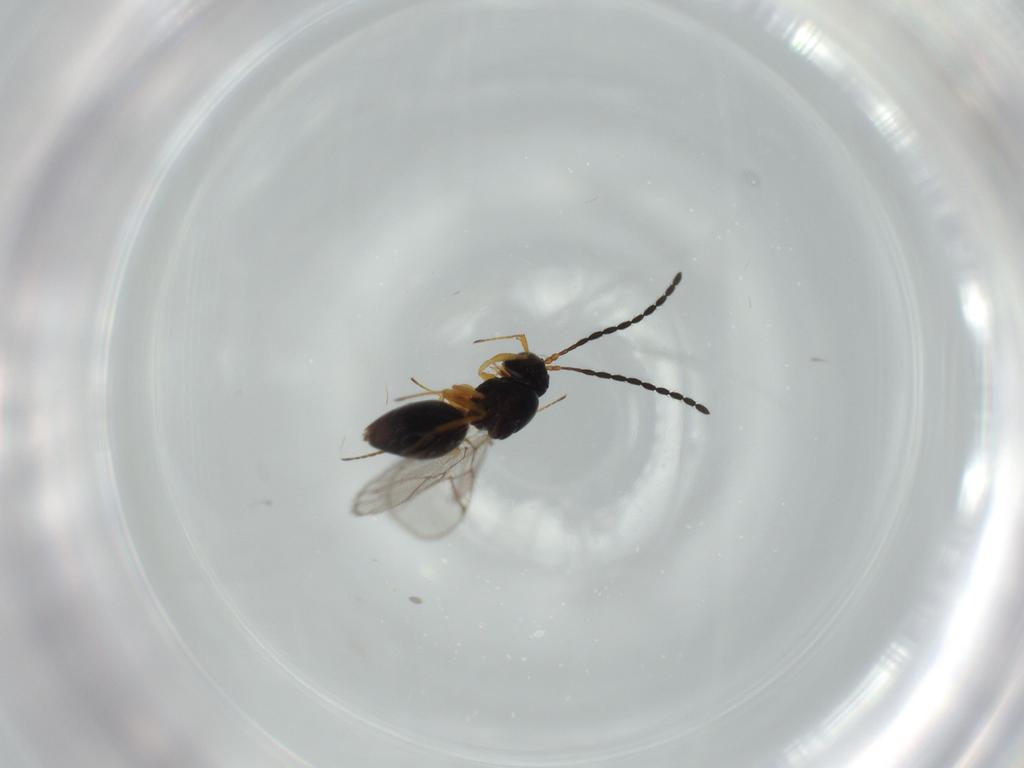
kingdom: Animalia
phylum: Arthropoda
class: Insecta
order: Hymenoptera
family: Figitidae
